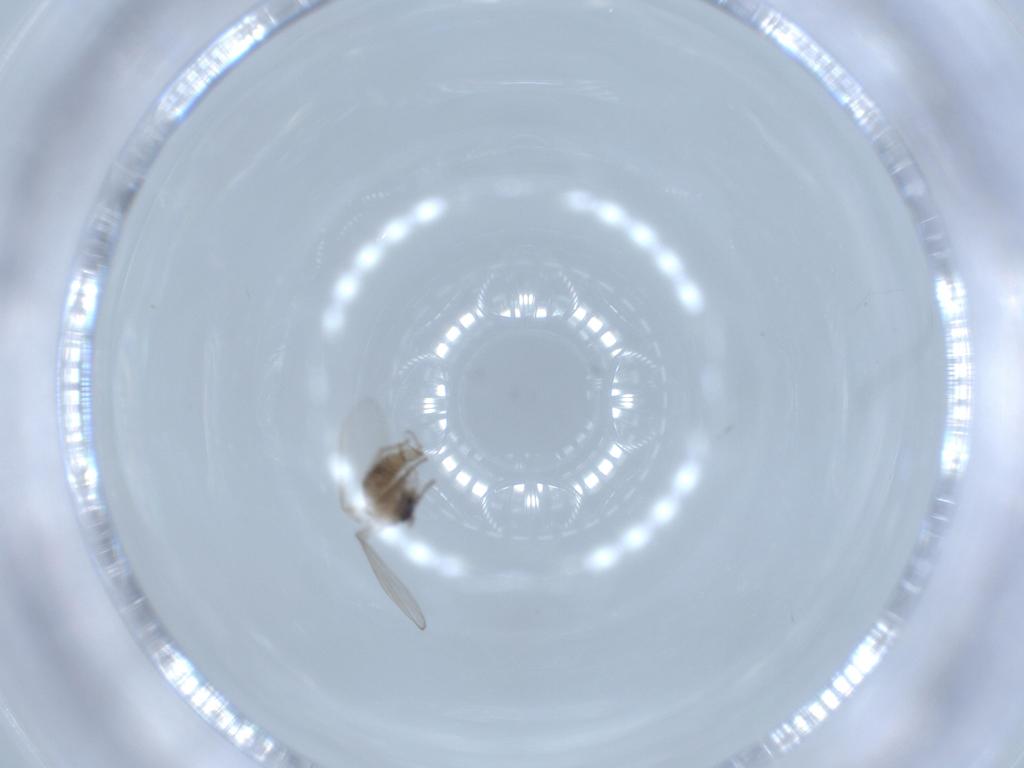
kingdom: Animalia
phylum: Arthropoda
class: Insecta
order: Diptera
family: Psychodidae
